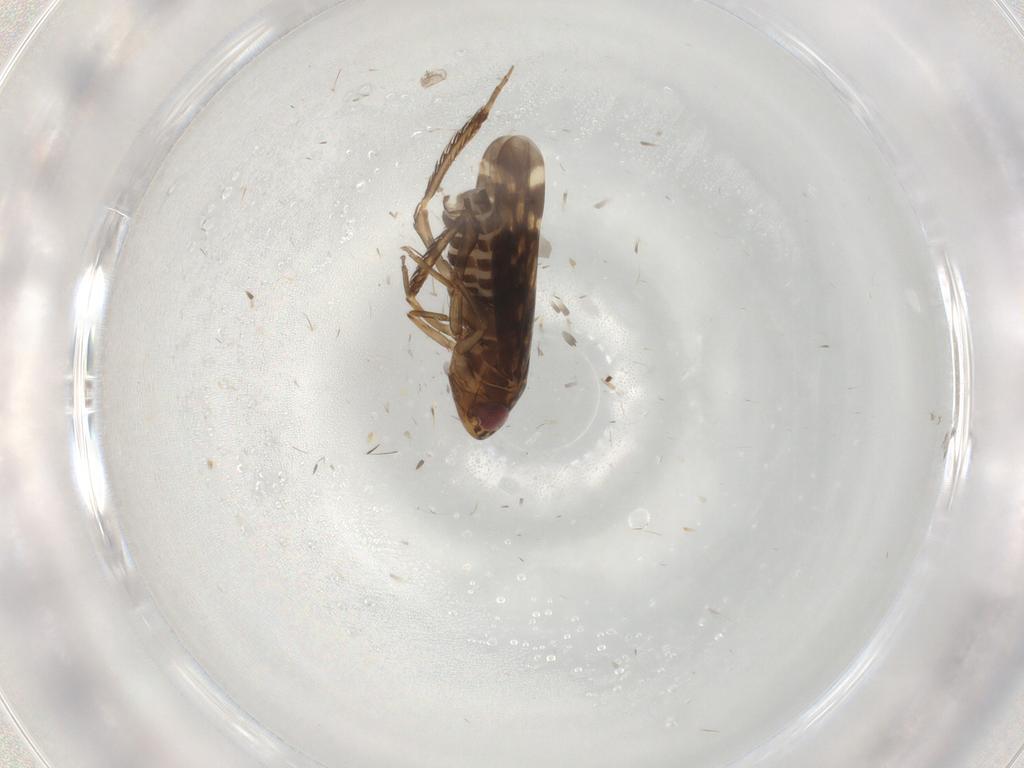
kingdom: Animalia
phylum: Arthropoda
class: Insecta
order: Hemiptera
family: Cicadellidae
